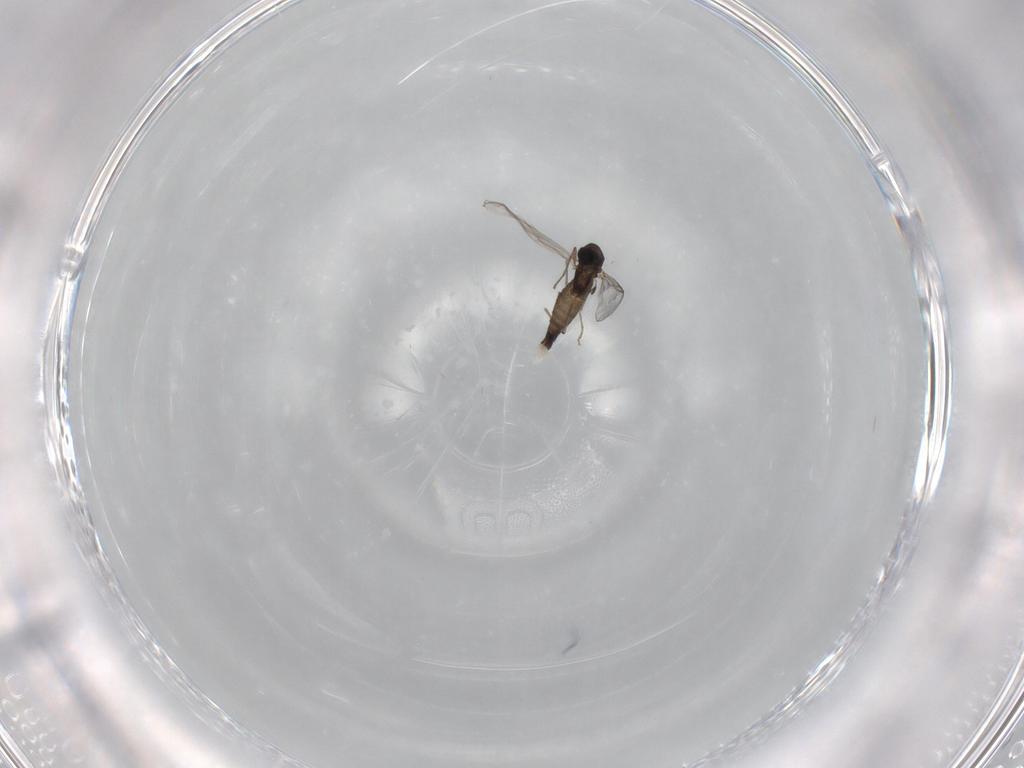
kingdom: Animalia
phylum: Arthropoda
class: Insecta
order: Diptera
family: Chironomidae
